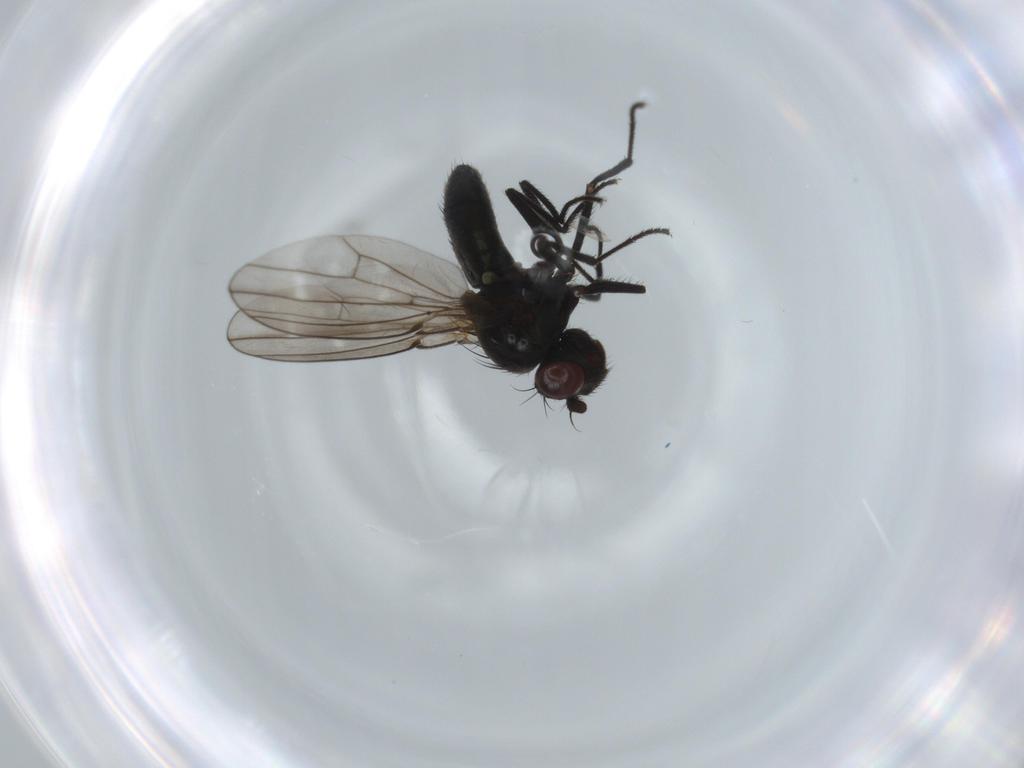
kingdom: Animalia
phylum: Arthropoda
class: Insecta
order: Diptera
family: Ephydridae
